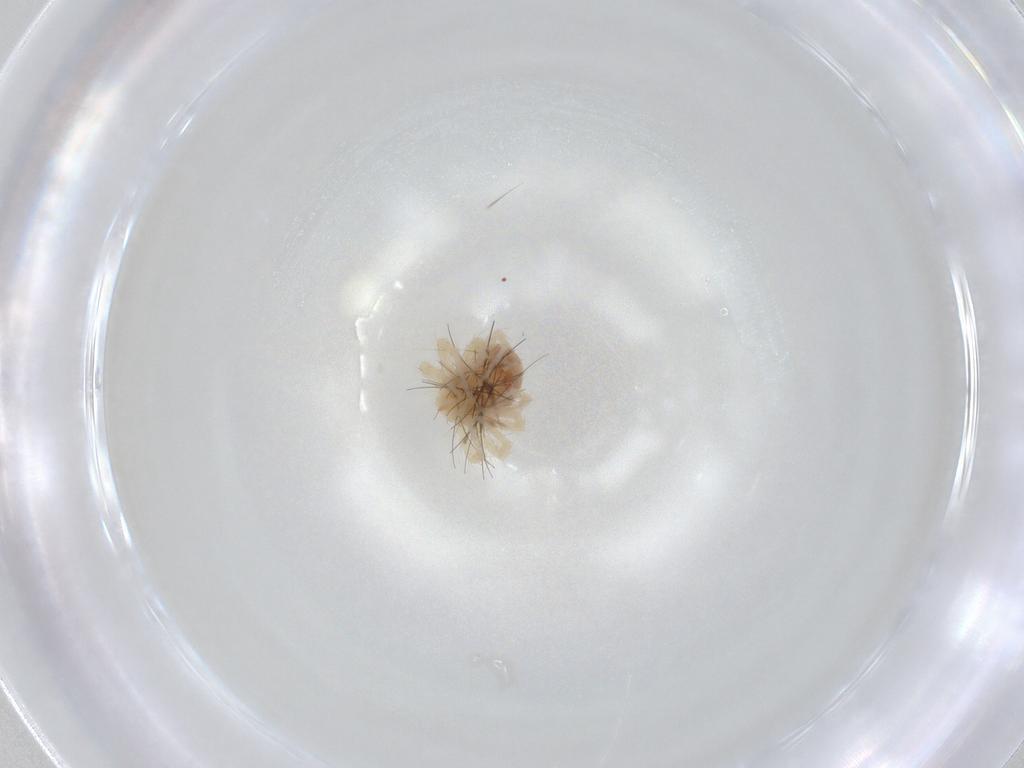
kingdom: Animalia
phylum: Arthropoda
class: Arachnida
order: Trombidiformes
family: Anystidae
